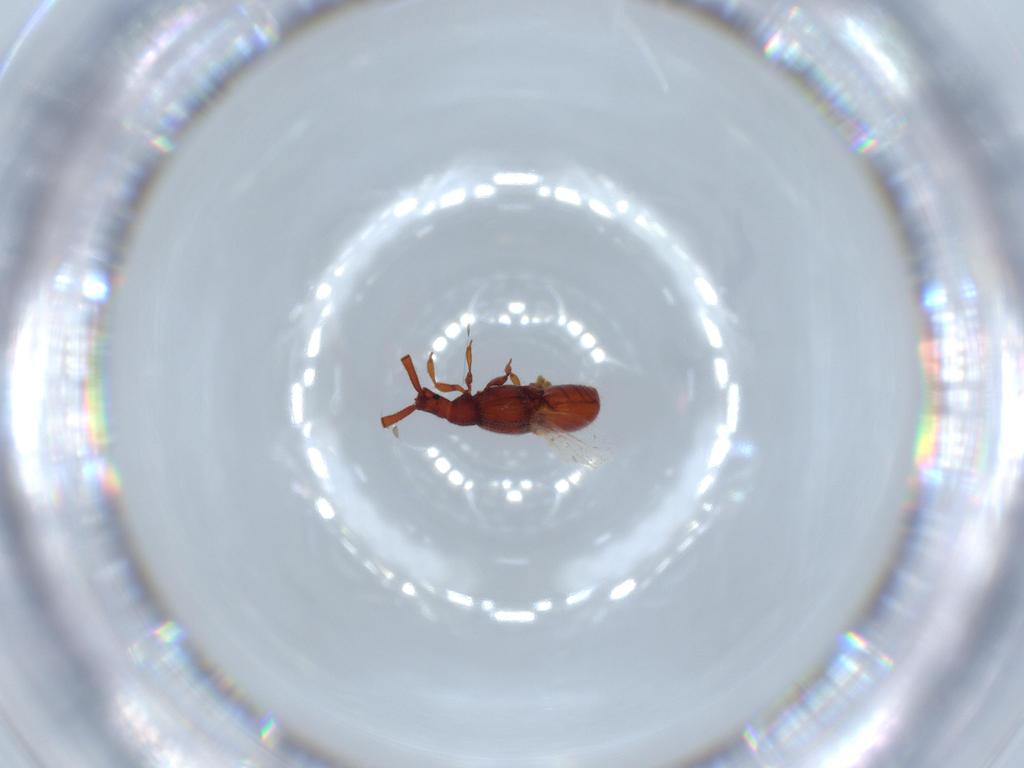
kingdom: Animalia
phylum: Arthropoda
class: Insecta
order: Coleoptera
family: Staphylinidae
